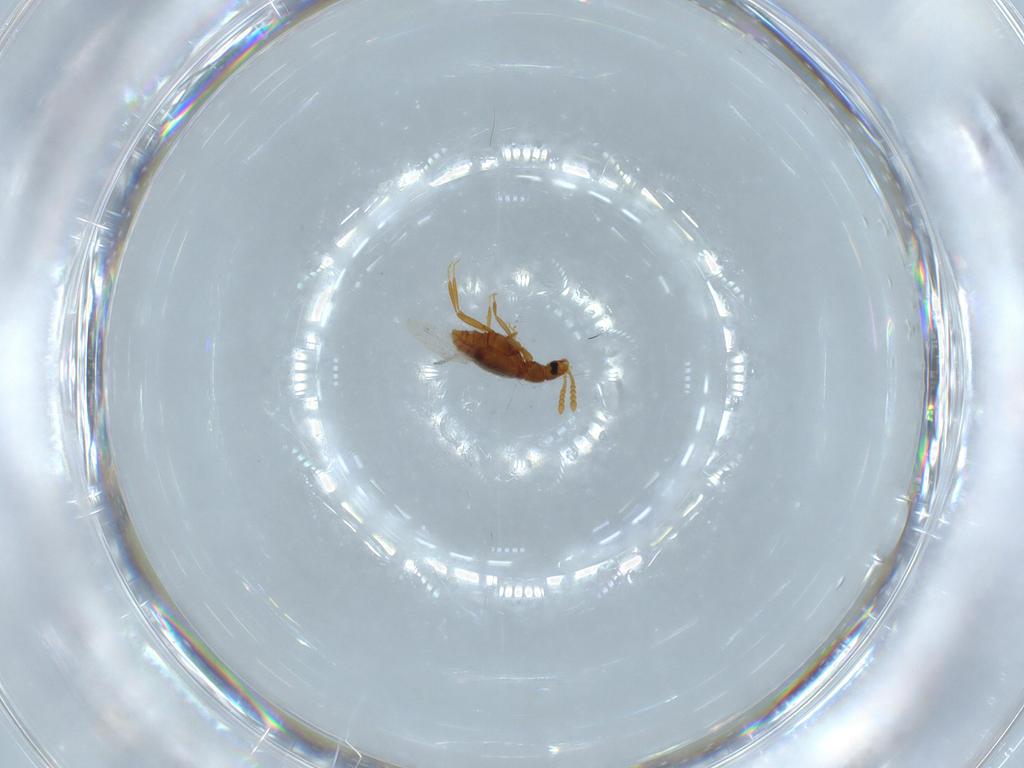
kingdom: Animalia
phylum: Arthropoda
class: Insecta
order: Coleoptera
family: Staphylinidae
